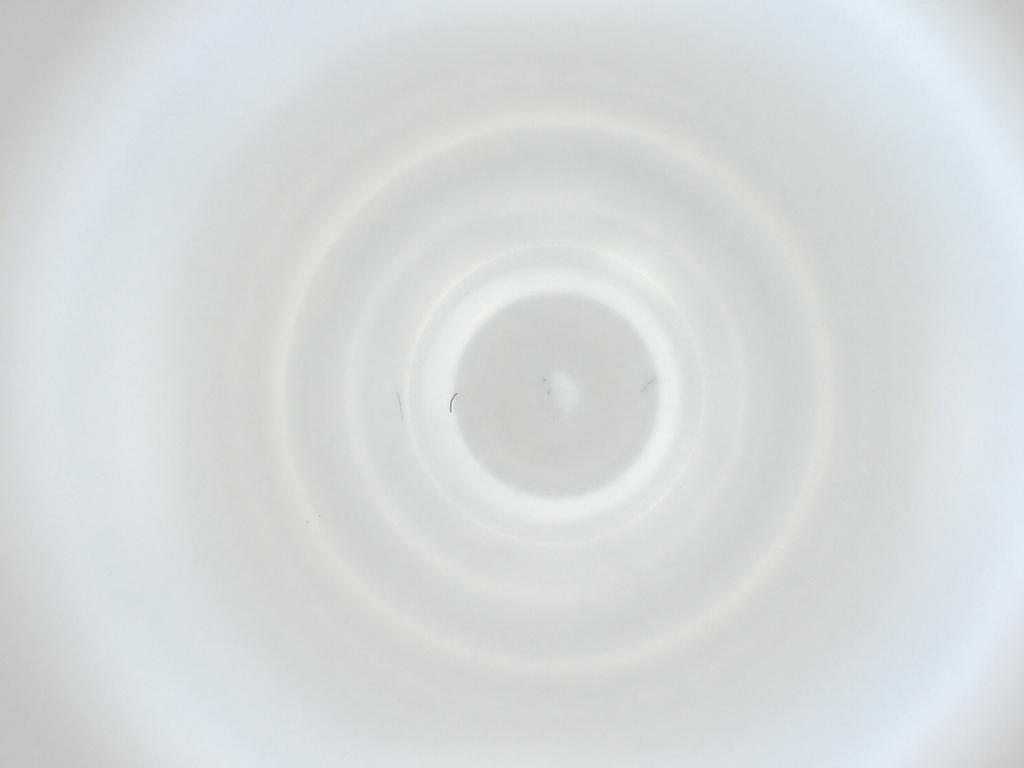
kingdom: Animalia
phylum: Arthropoda
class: Insecta
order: Diptera
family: Cecidomyiidae
